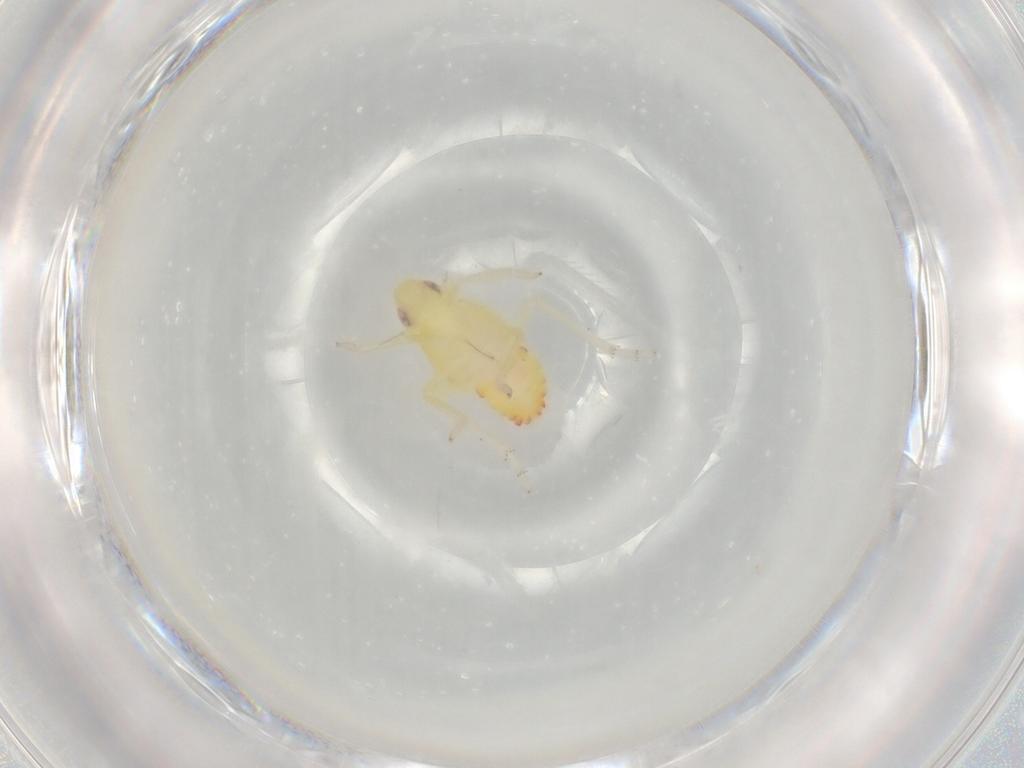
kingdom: Animalia
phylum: Arthropoda
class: Insecta
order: Hemiptera
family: Tropiduchidae
